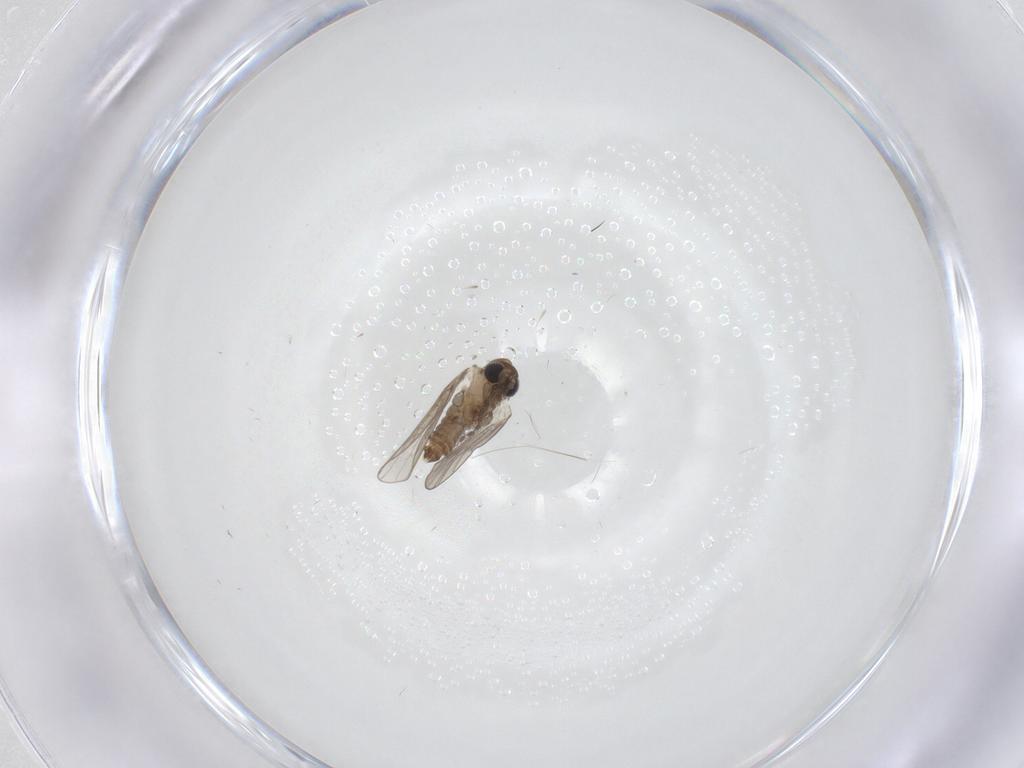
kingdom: Animalia
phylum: Arthropoda
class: Insecta
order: Diptera
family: Psychodidae
